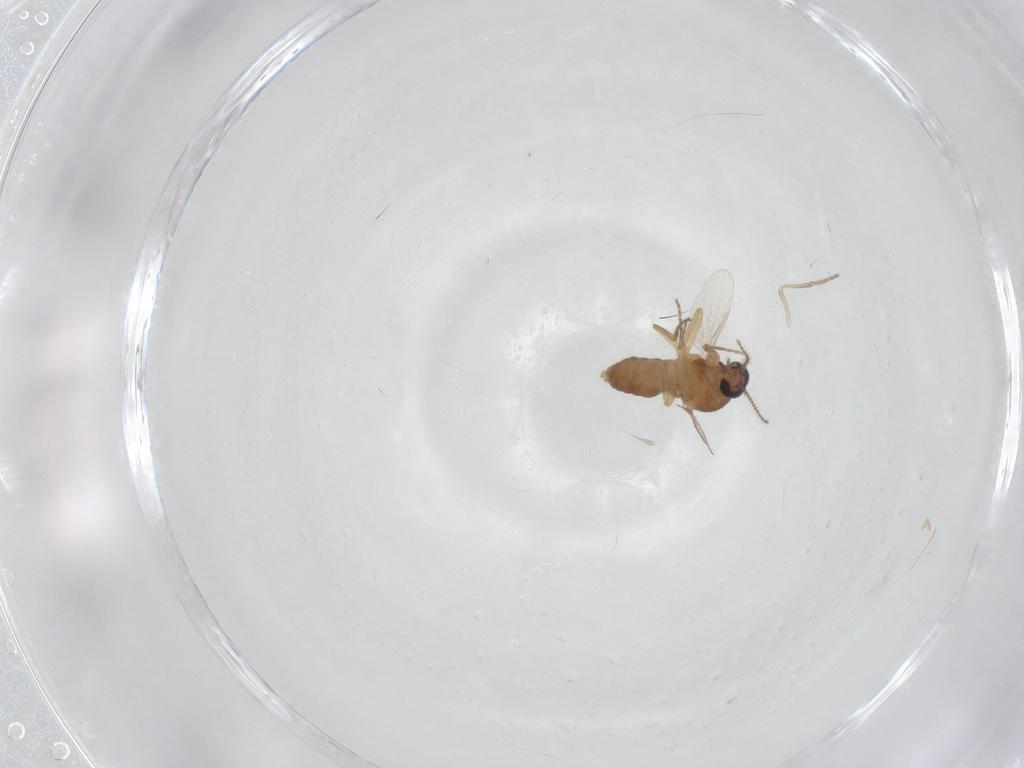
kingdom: Animalia
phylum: Arthropoda
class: Insecta
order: Diptera
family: Ceratopogonidae
